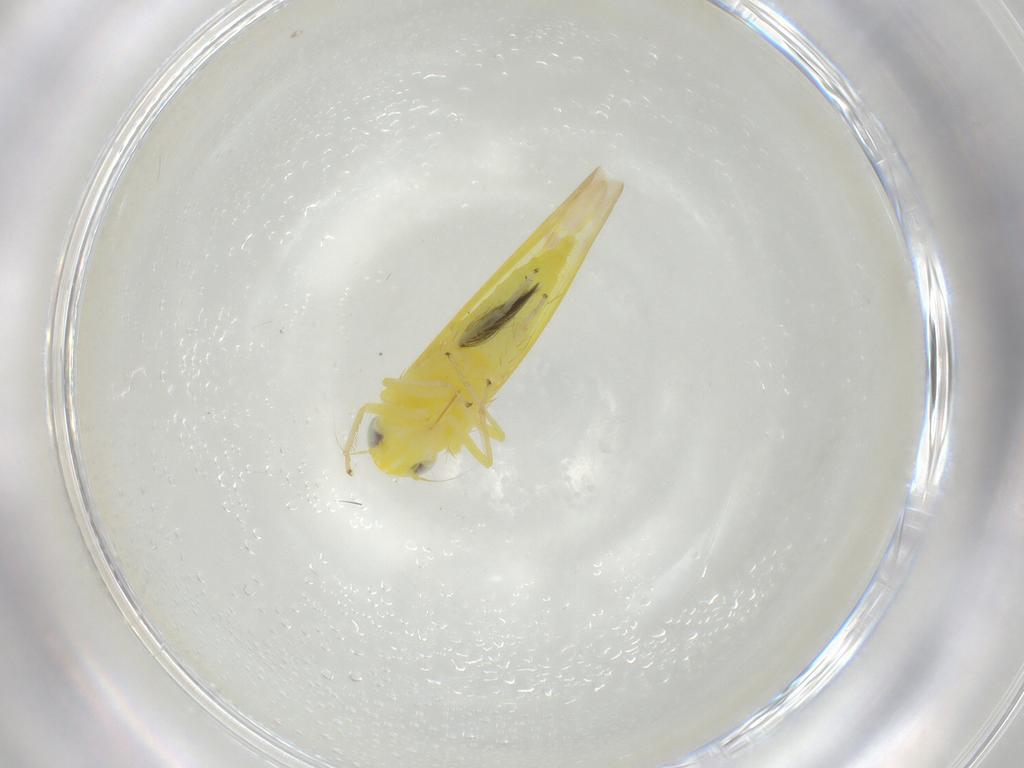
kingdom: Animalia
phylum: Arthropoda
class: Insecta
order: Hemiptera
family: Cicadellidae
